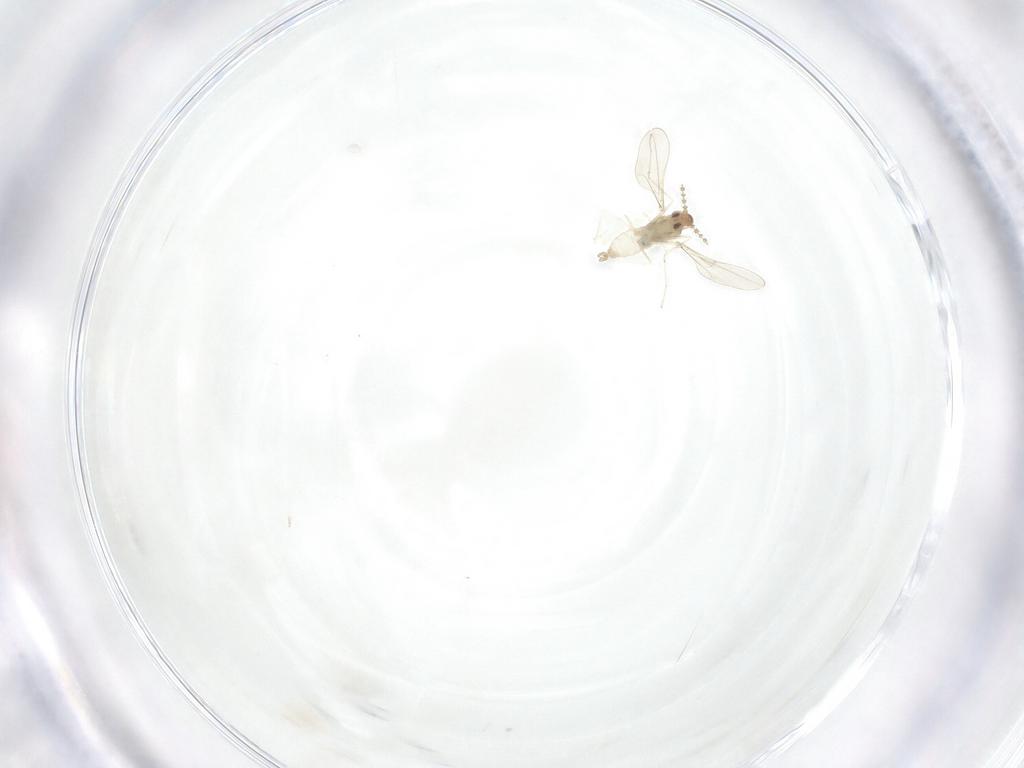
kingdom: Animalia
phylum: Arthropoda
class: Insecta
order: Diptera
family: Cecidomyiidae
